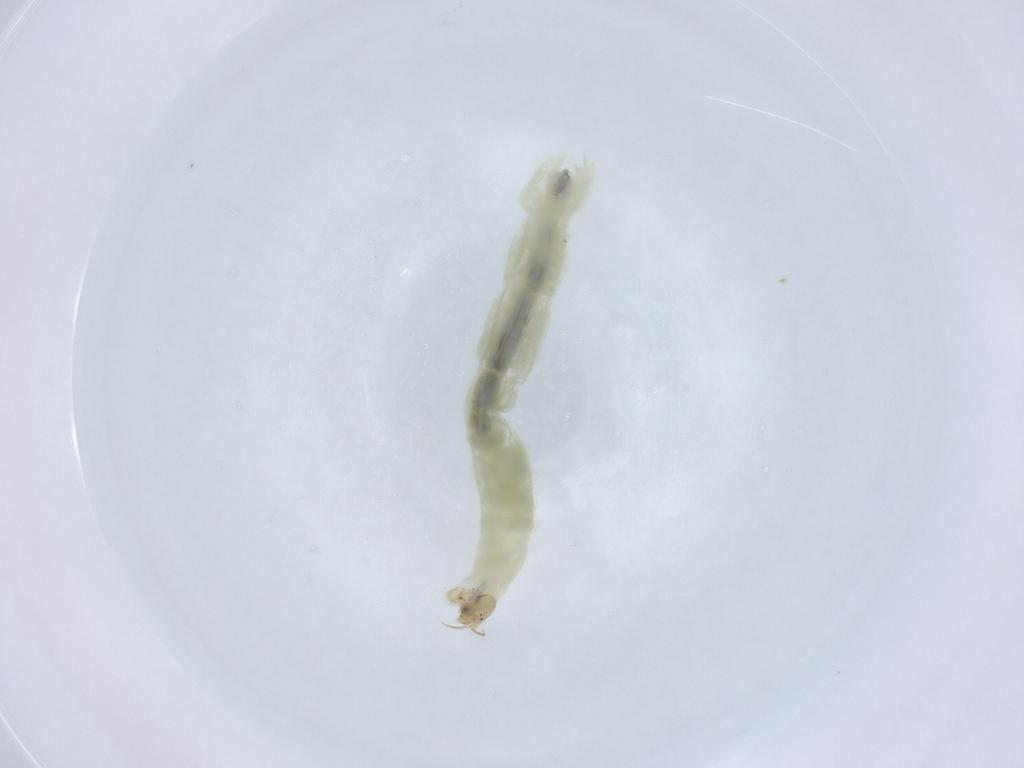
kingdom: Animalia
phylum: Arthropoda
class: Insecta
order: Diptera
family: Chironomidae
